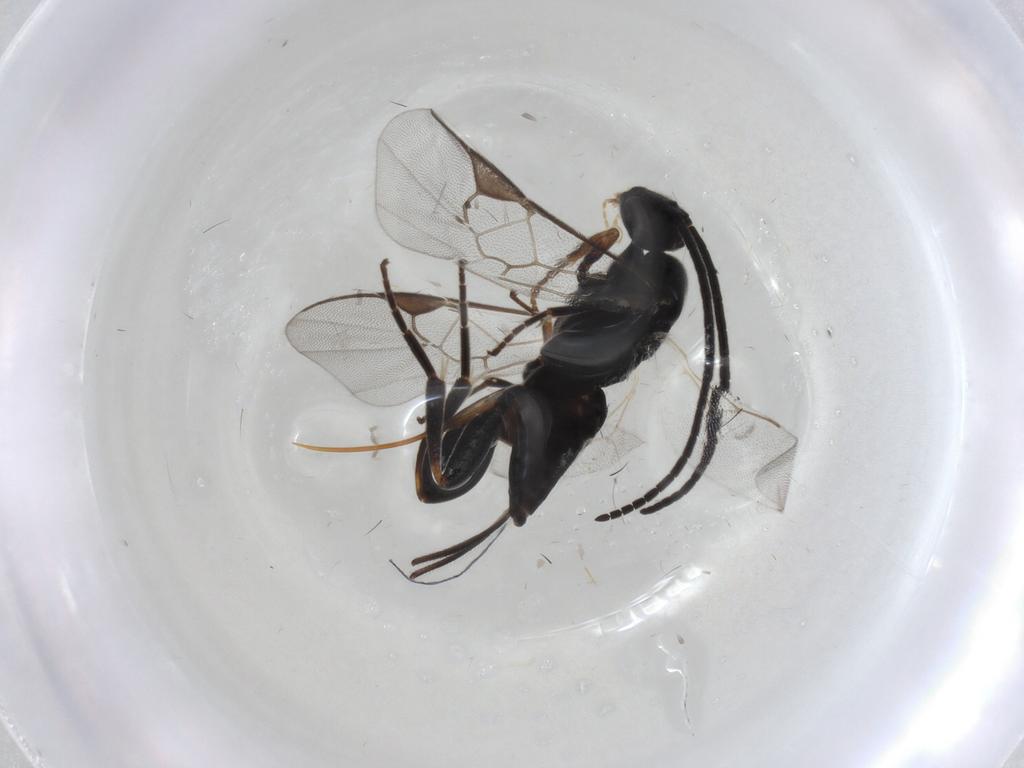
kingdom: Animalia
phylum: Arthropoda
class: Insecta
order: Hymenoptera
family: Braconidae
